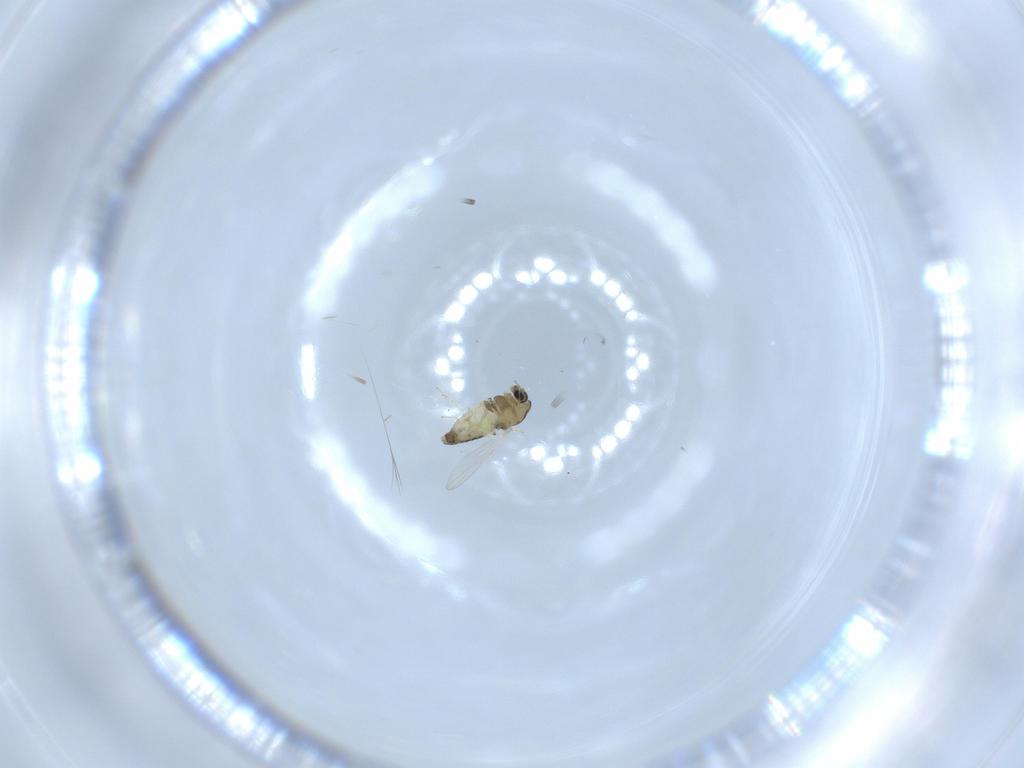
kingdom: Animalia
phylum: Arthropoda
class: Insecta
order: Diptera
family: Chironomidae
